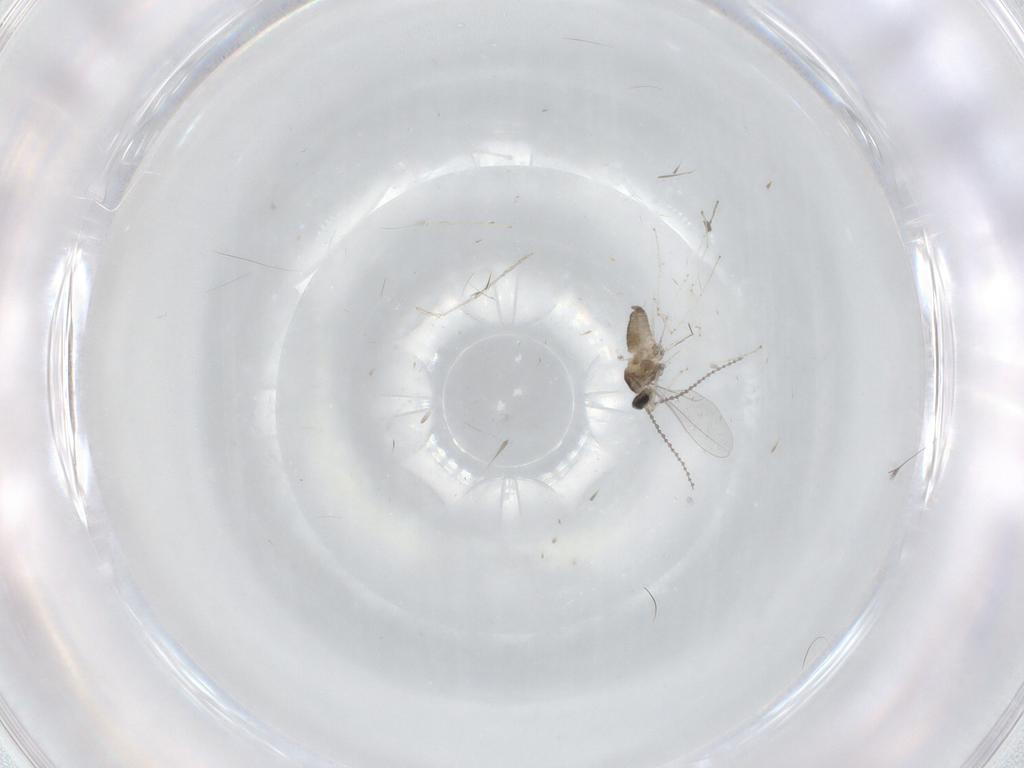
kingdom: Animalia
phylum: Arthropoda
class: Insecta
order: Diptera
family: Cecidomyiidae
